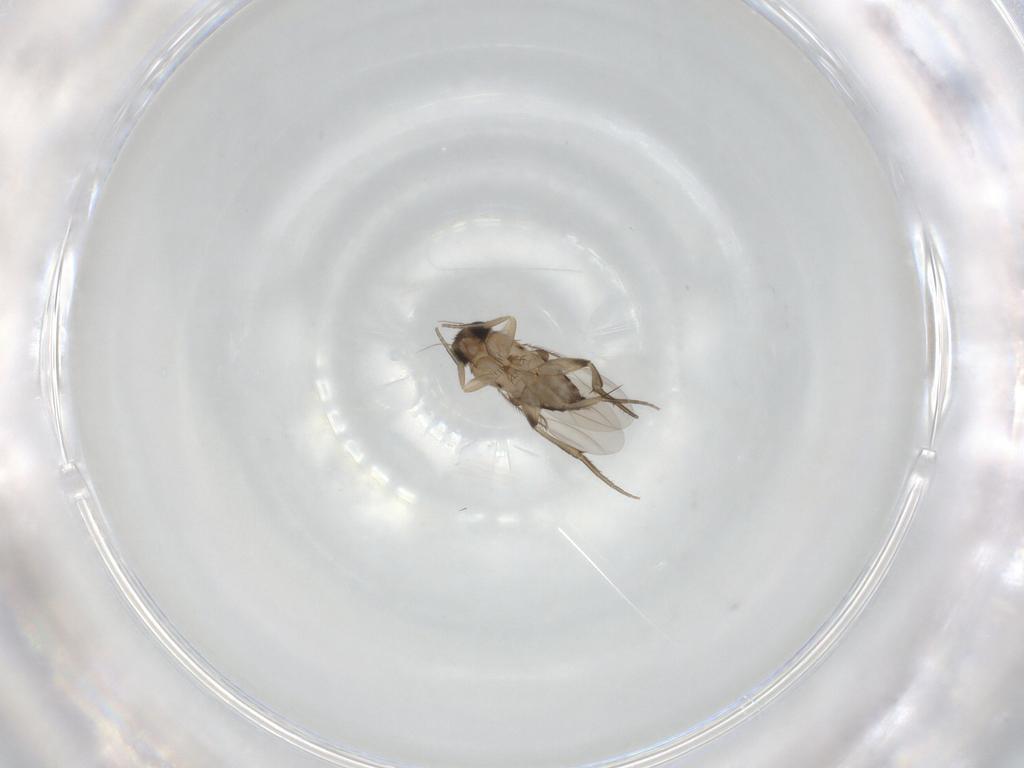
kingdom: Animalia
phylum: Arthropoda
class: Insecta
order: Diptera
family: Phoridae
